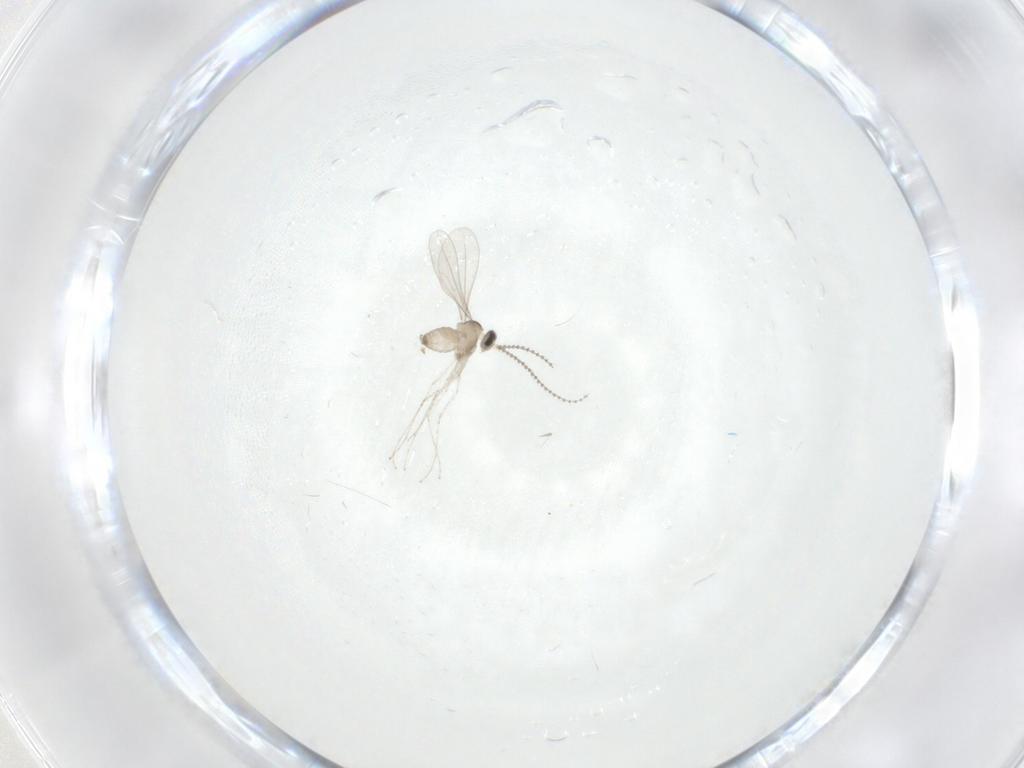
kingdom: Animalia
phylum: Arthropoda
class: Insecta
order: Diptera
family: Cecidomyiidae
